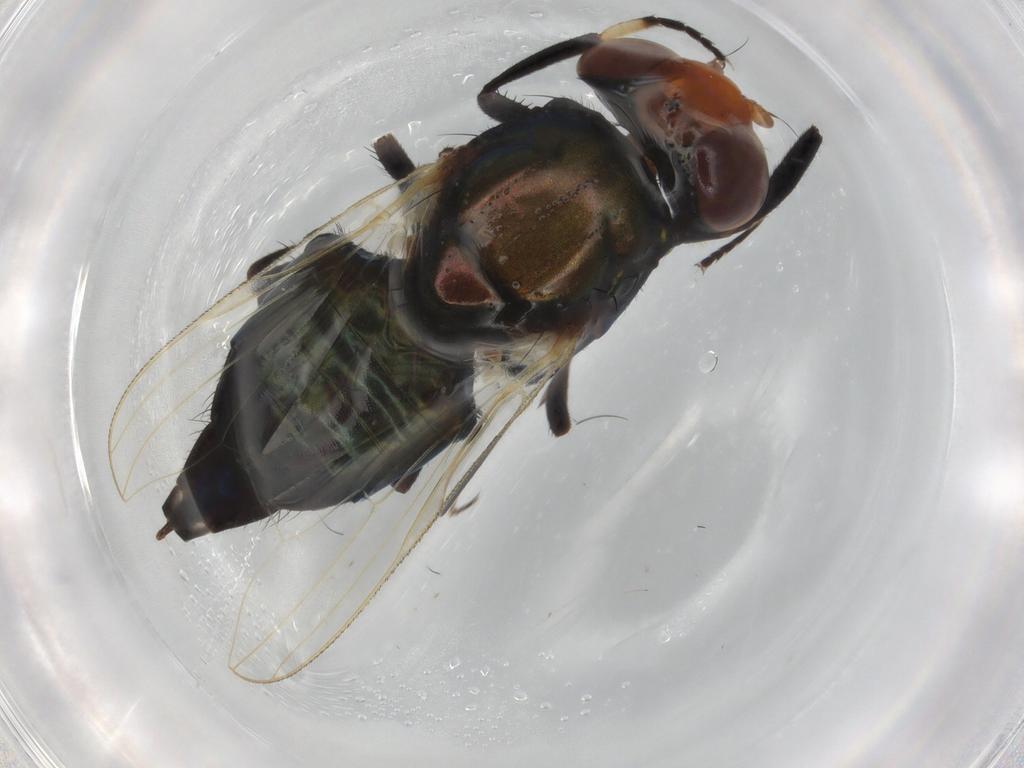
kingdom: Animalia
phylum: Arthropoda
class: Insecta
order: Diptera
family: Ulidiidae
